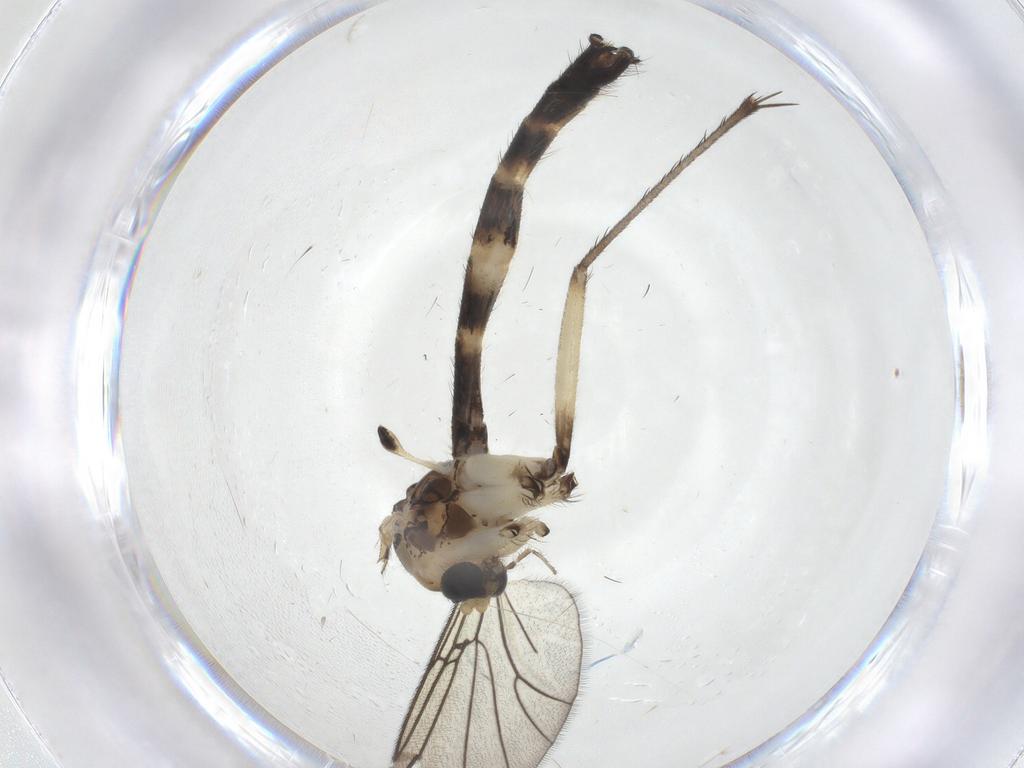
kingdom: Animalia
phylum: Arthropoda
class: Insecta
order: Diptera
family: Mycetophilidae
